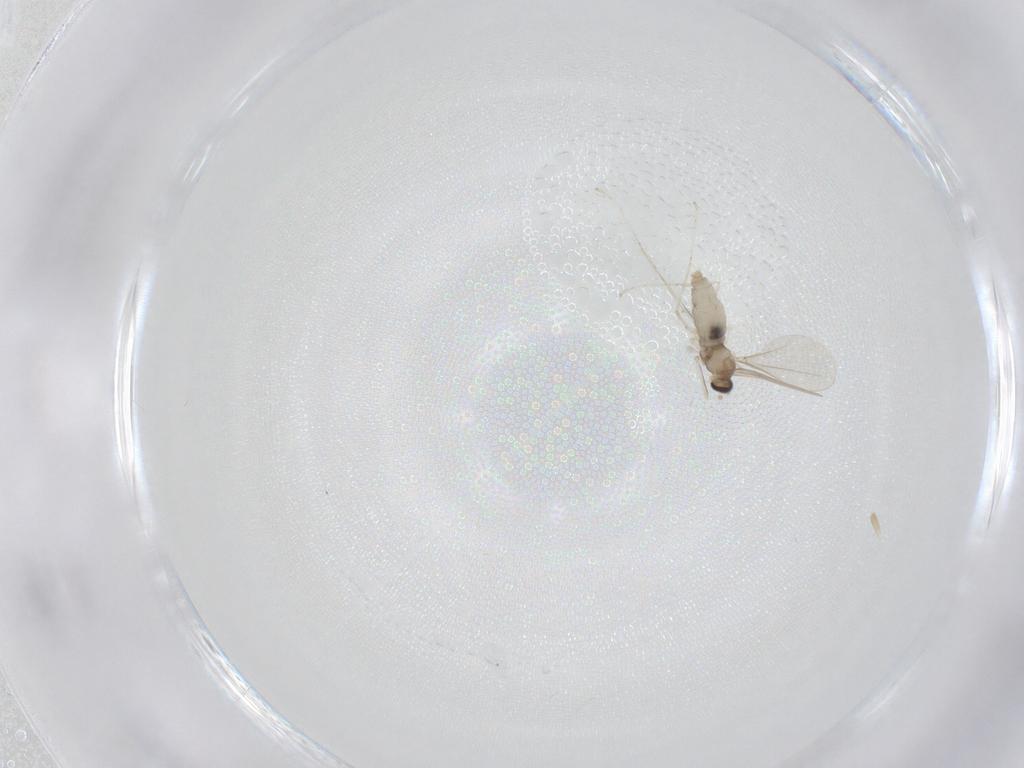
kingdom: Animalia
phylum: Arthropoda
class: Insecta
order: Diptera
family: Cecidomyiidae
